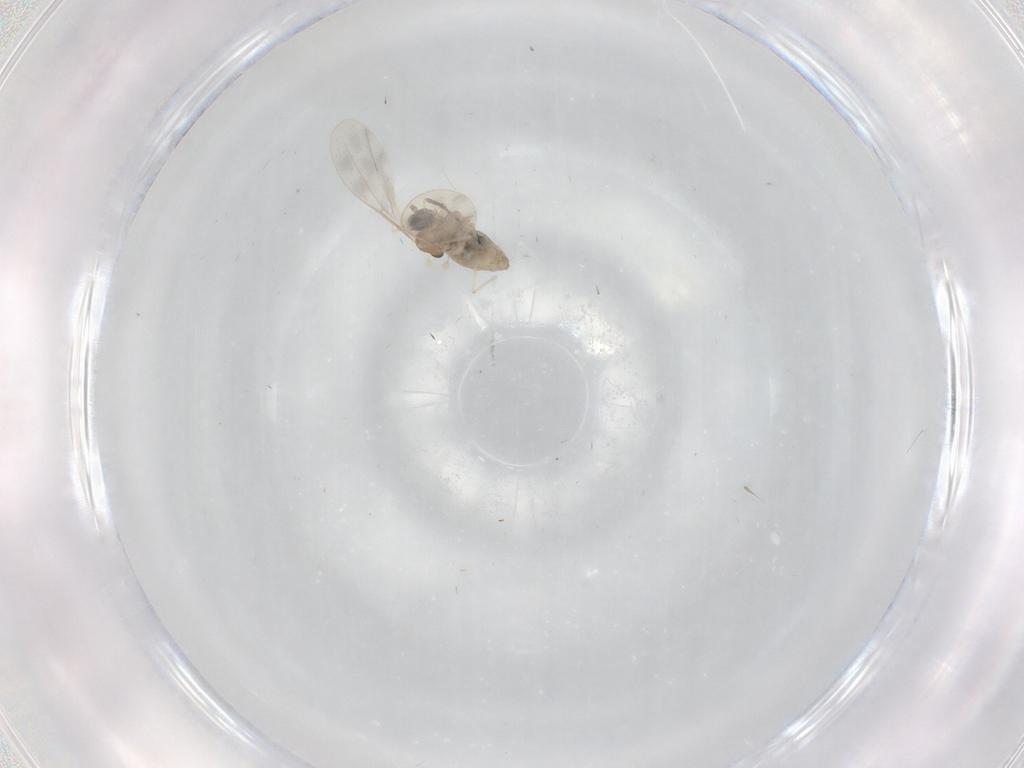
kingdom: Animalia
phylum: Arthropoda
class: Insecta
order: Diptera
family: Cecidomyiidae
